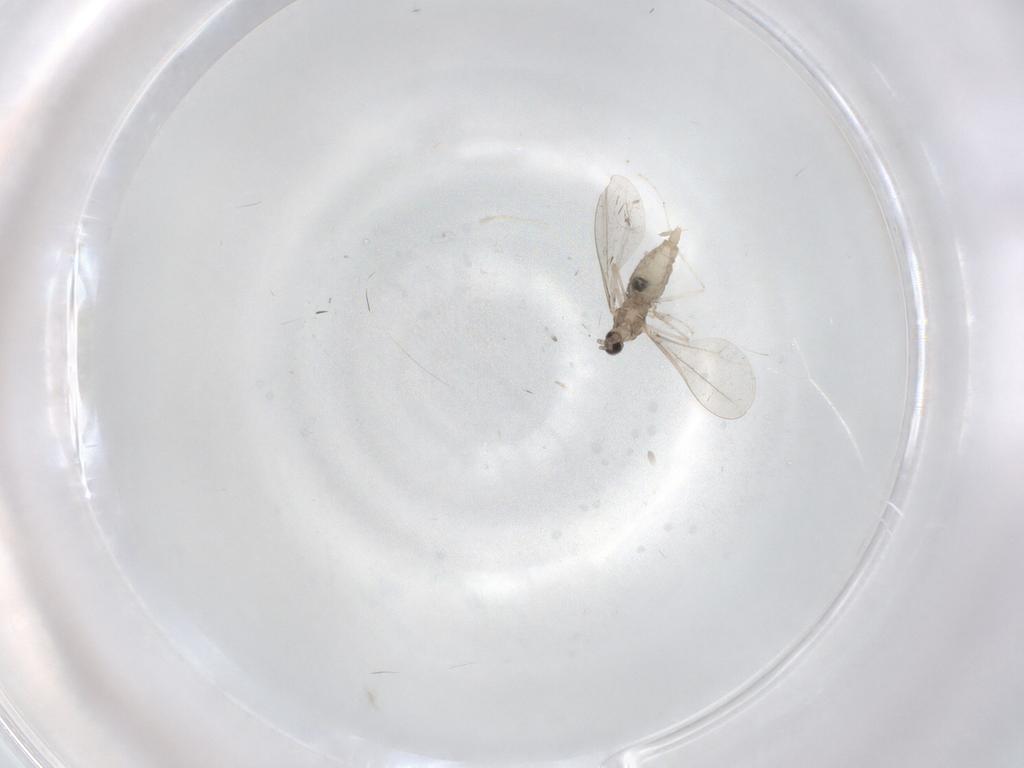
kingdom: Animalia
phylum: Arthropoda
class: Insecta
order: Diptera
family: Cecidomyiidae
